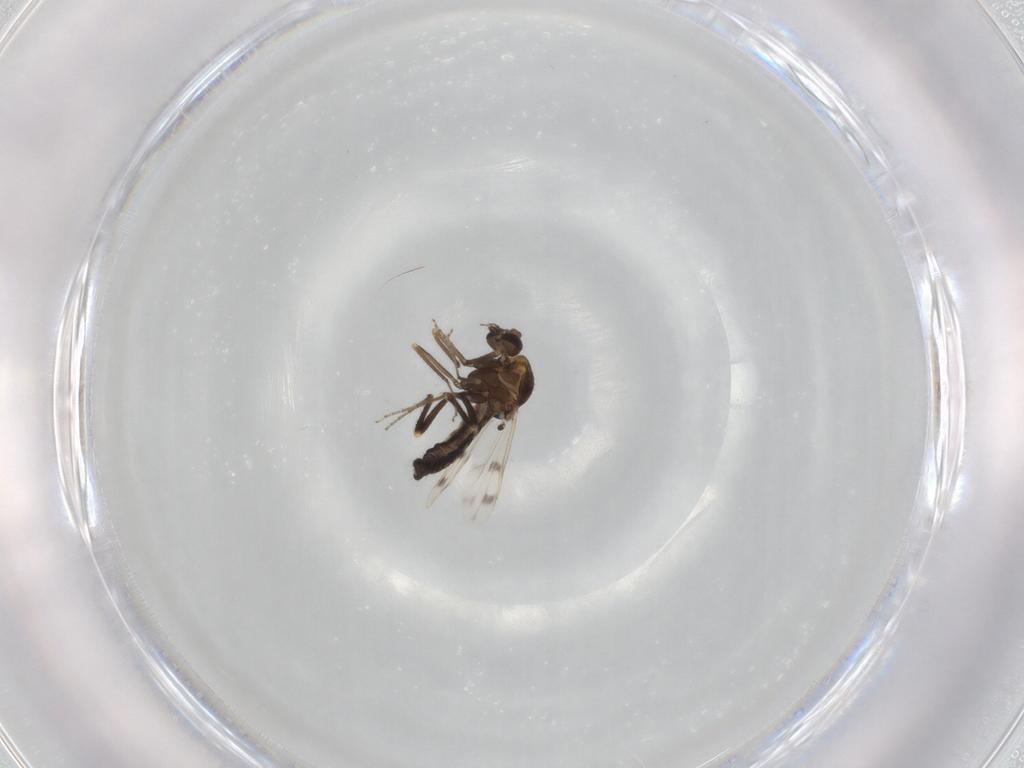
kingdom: Animalia
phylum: Arthropoda
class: Insecta
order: Diptera
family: Ceratopogonidae
